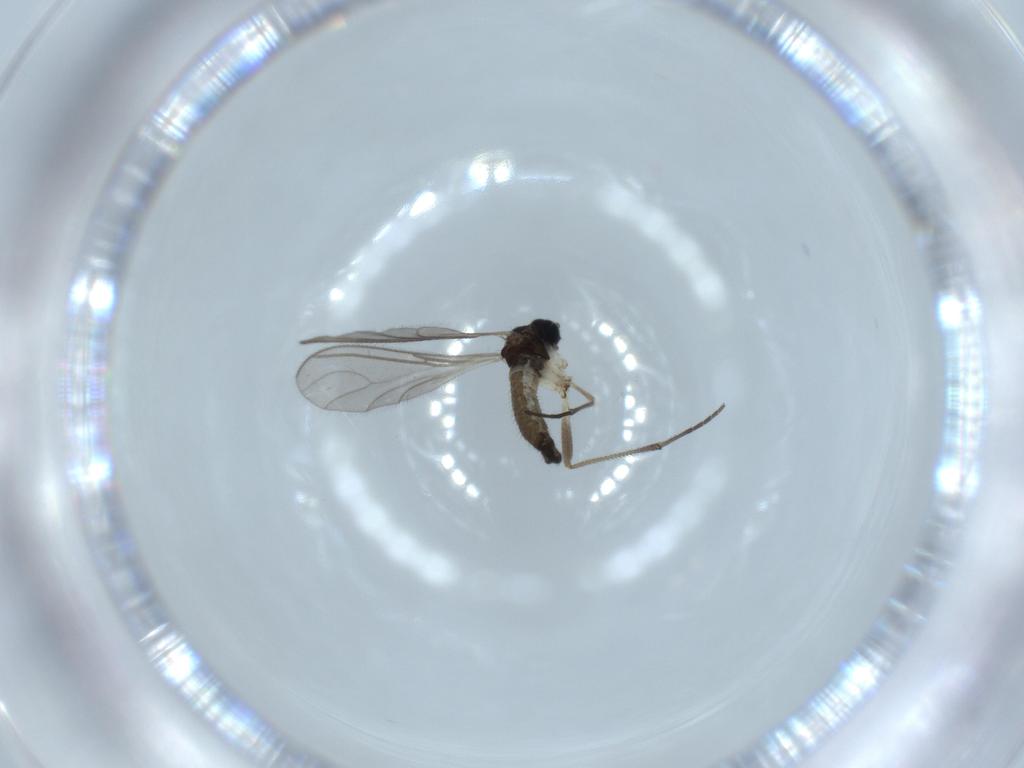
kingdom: Animalia
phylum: Arthropoda
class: Insecta
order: Diptera
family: Sciaridae
